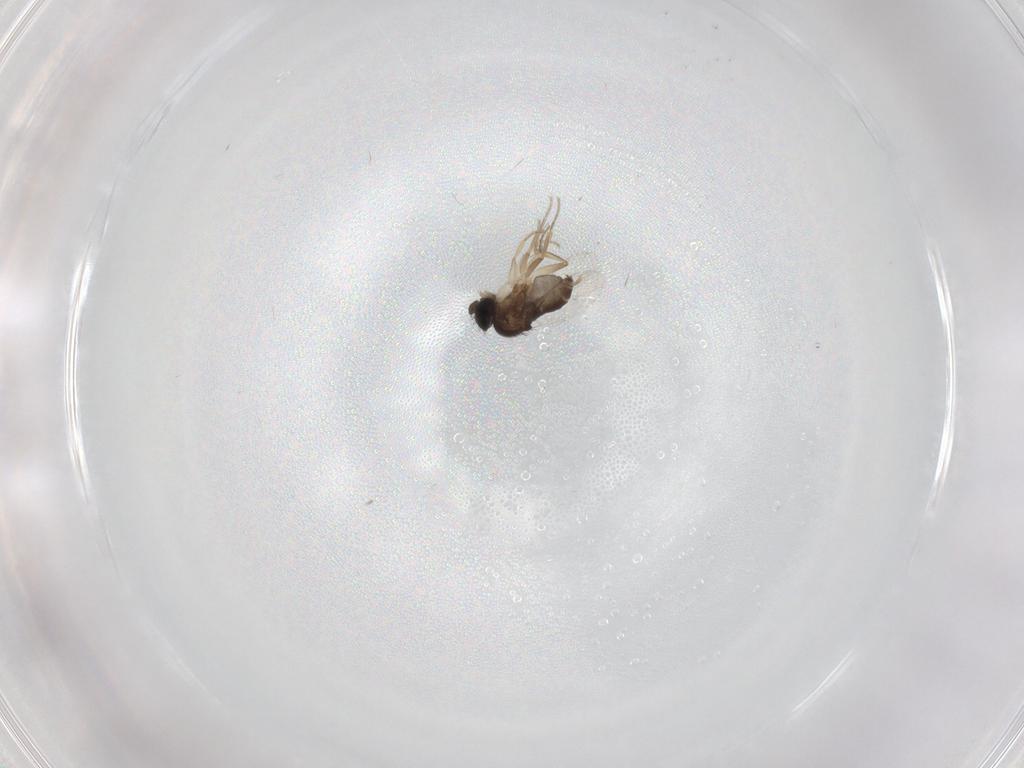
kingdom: Animalia
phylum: Arthropoda
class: Insecta
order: Diptera
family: Phoridae
